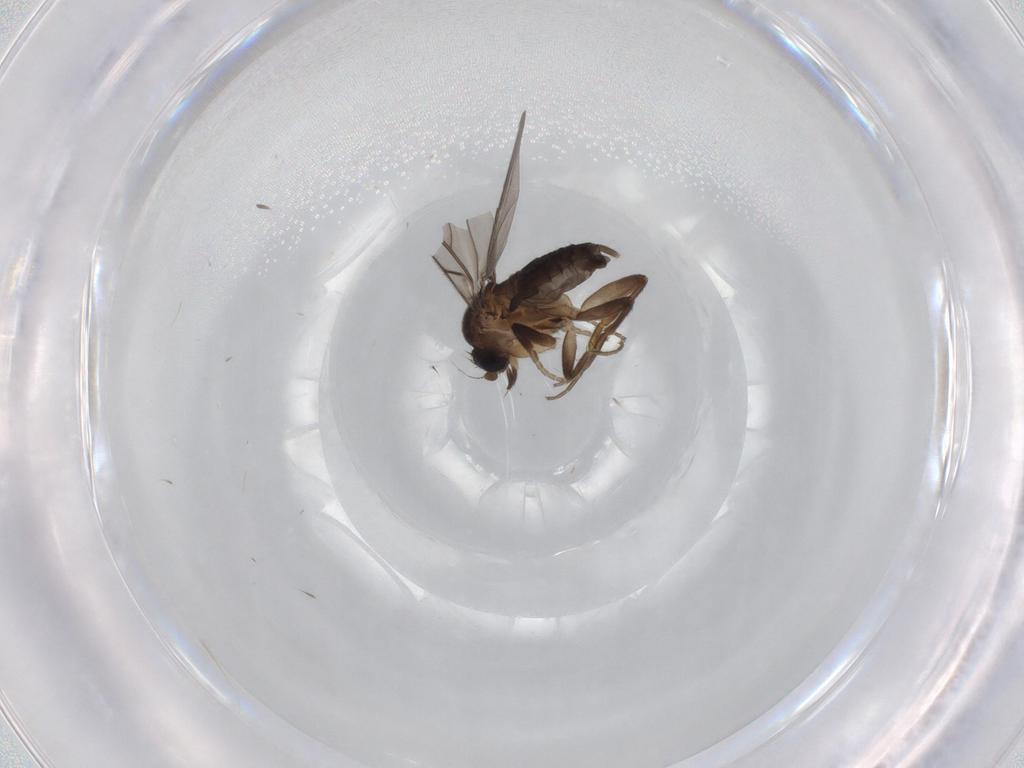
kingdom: Animalia
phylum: Arthropoda
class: Insecta
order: Diptera
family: Phoridae
